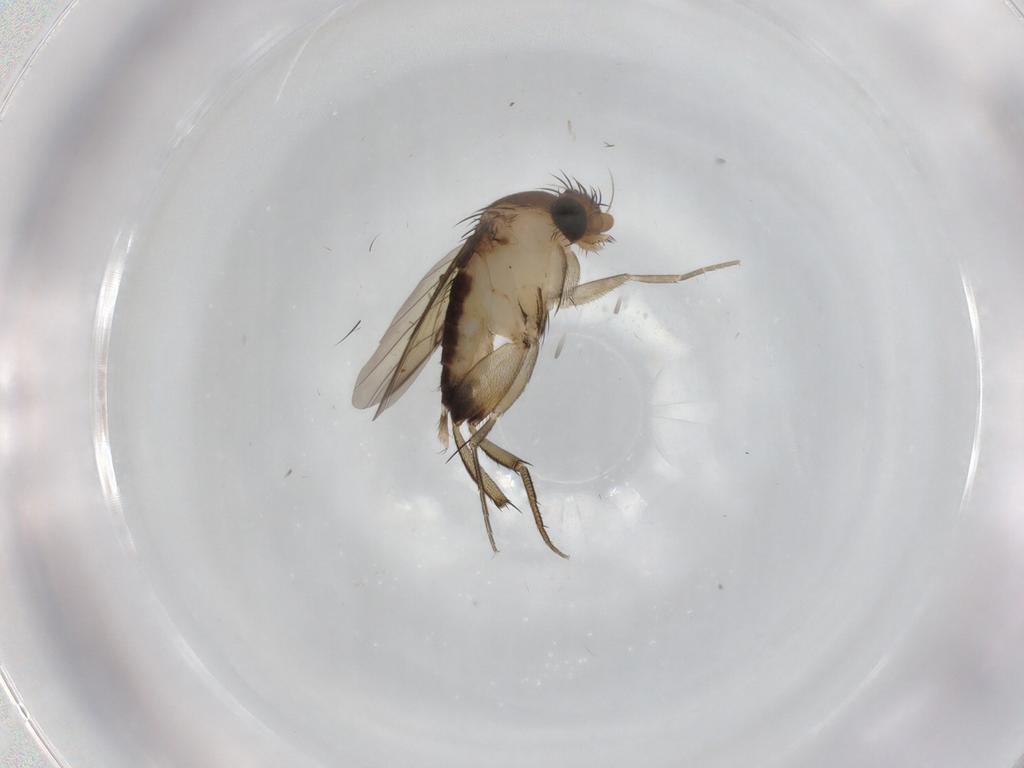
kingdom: Animalia
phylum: Arthropoda
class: Insecta
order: Diptera
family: Phoridae
